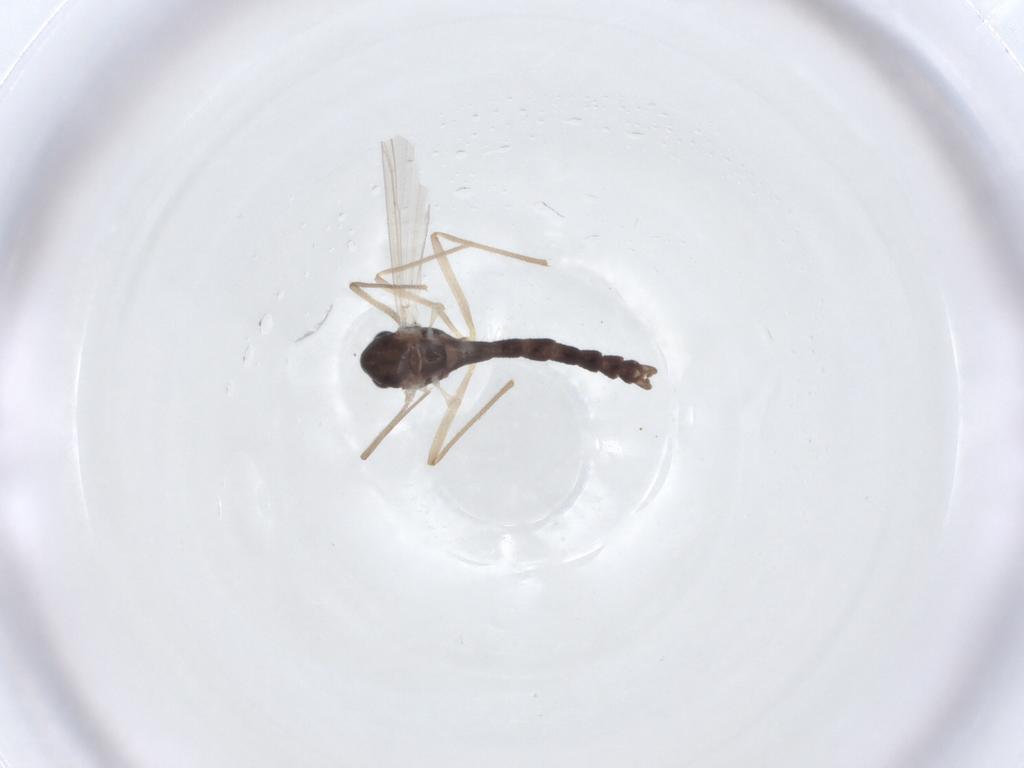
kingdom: Animalia
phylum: Arthropoda
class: Insecta
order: Diptera
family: Chironomidae
